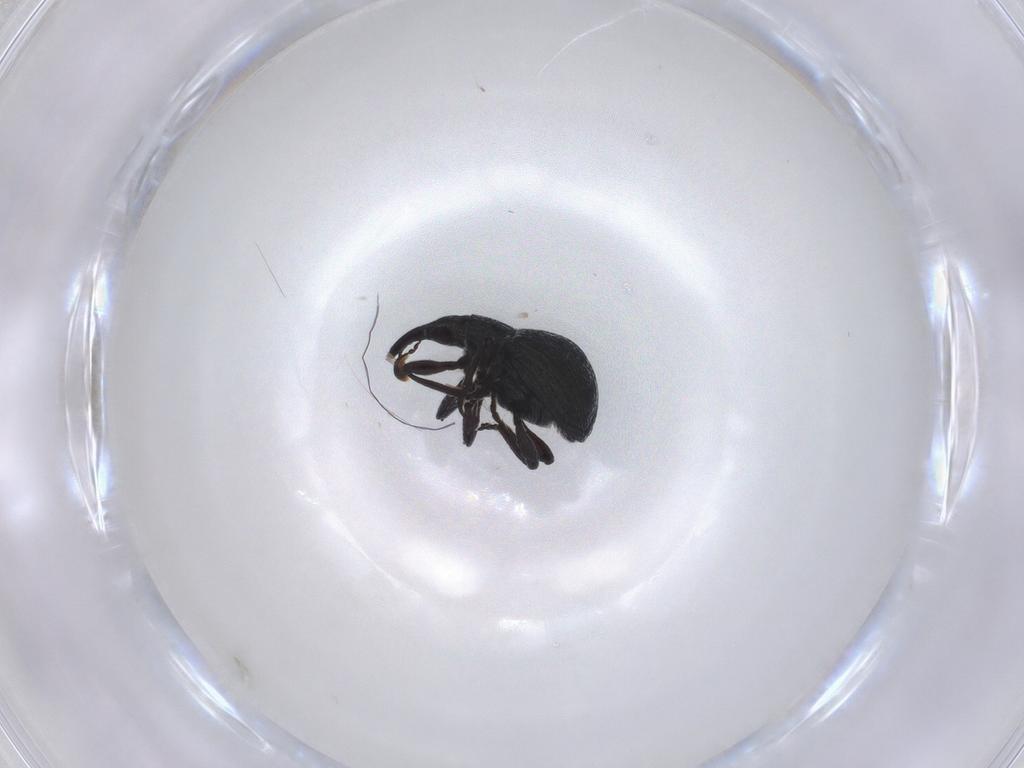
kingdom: Animalia
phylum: Arthropoda
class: Insecta
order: Coleoptera
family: Brentidae
